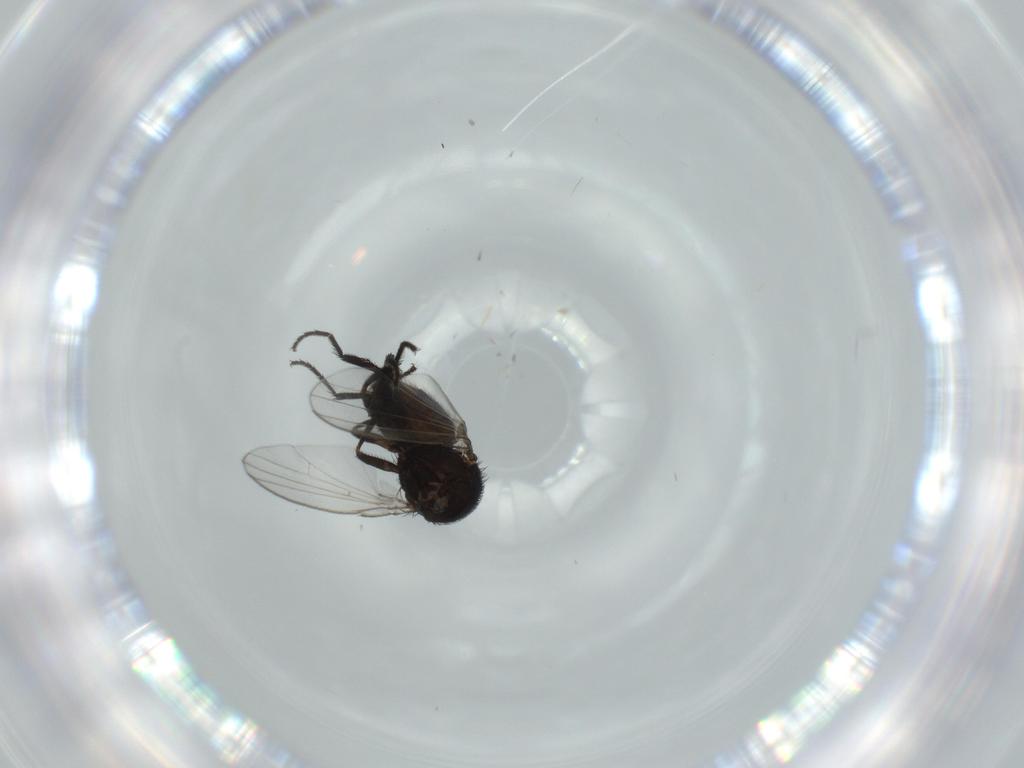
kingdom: Animalia
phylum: Arthropoda
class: Insecta
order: Diptera
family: Milichiidae
